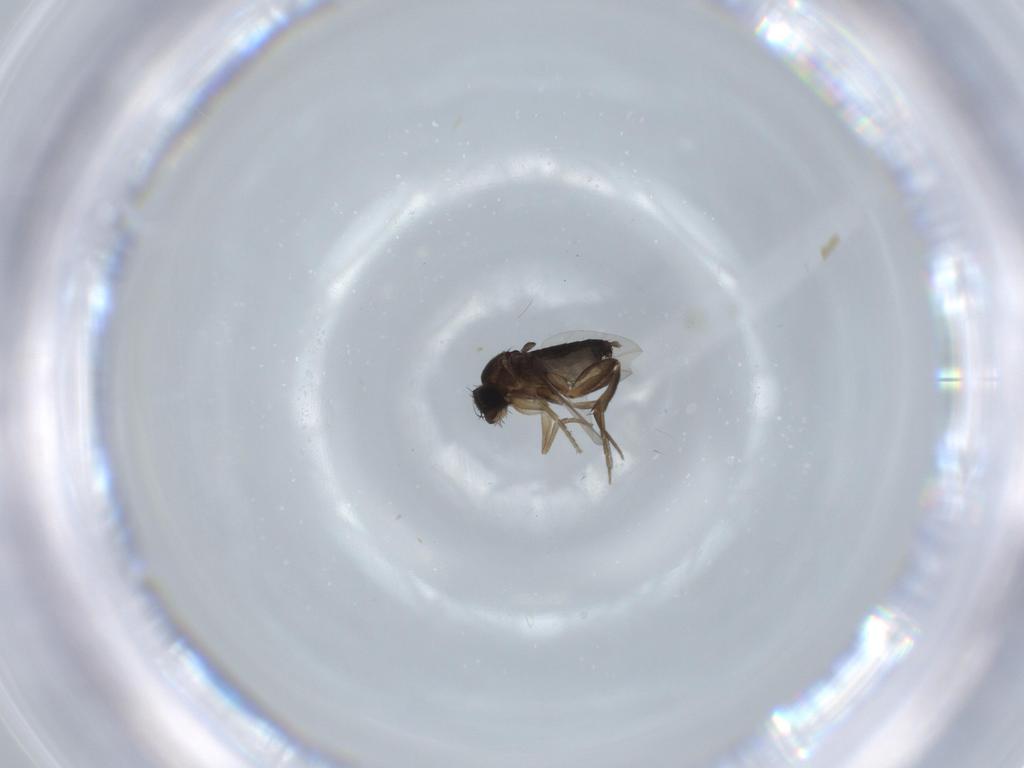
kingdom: Animalia
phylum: Arthropoda
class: Insecta
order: Diptera
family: Phoridae
